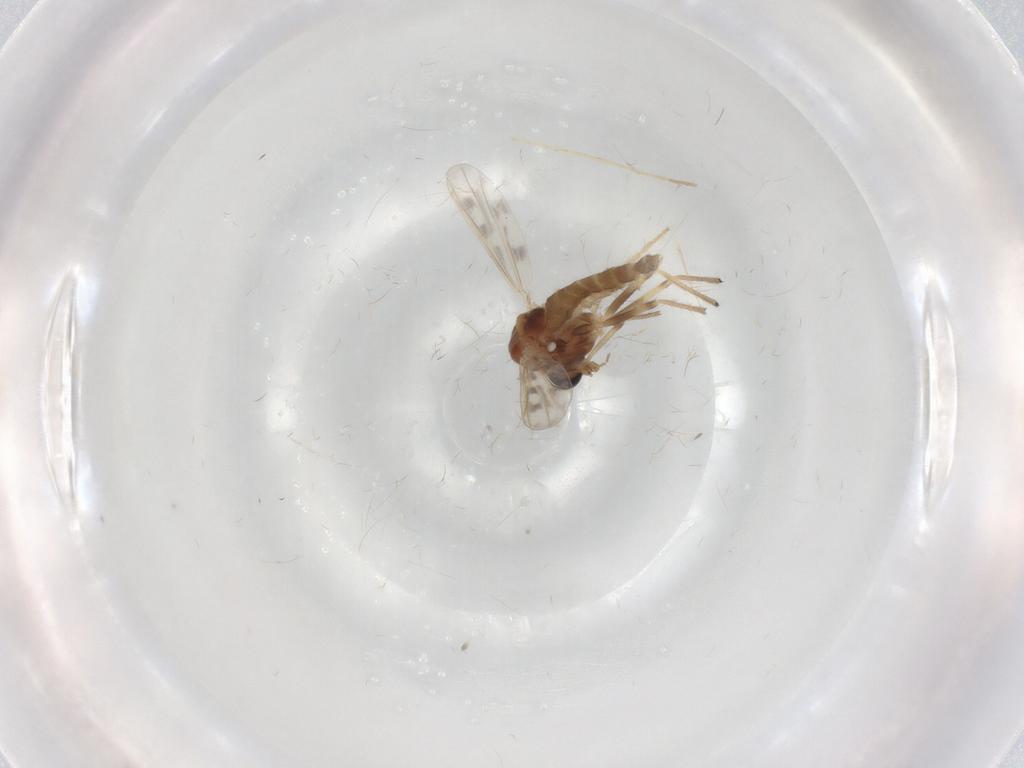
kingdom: Animalia
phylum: Arthropoda
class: Insecta
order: Diptera
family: Chironomidae
